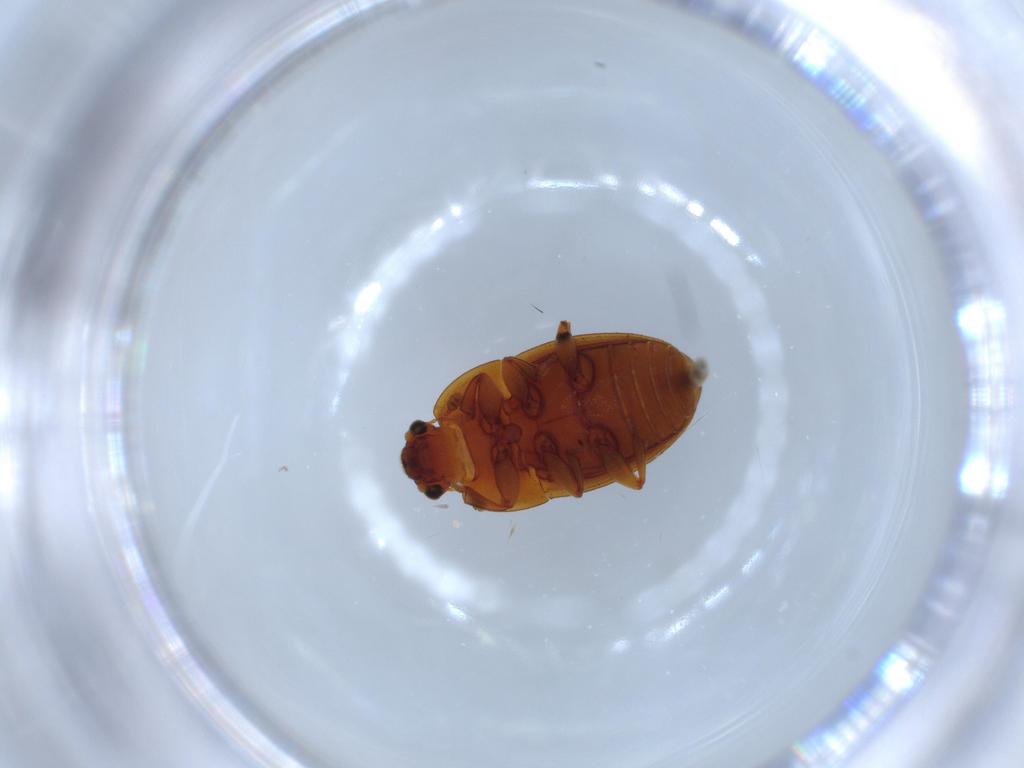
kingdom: Animalia
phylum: Arthropoda
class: Insecta
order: Coleoptera
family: Nitidulidae
